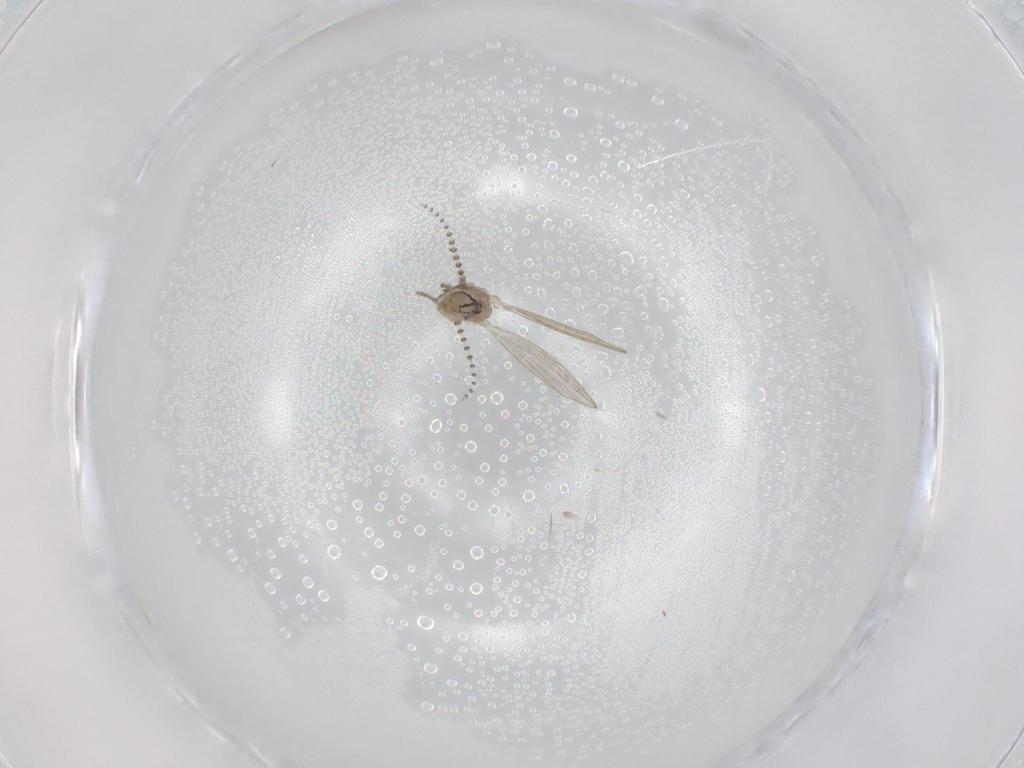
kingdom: Animalia
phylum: Arthropoda
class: Insecta
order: Diptera
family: Psychodidae
